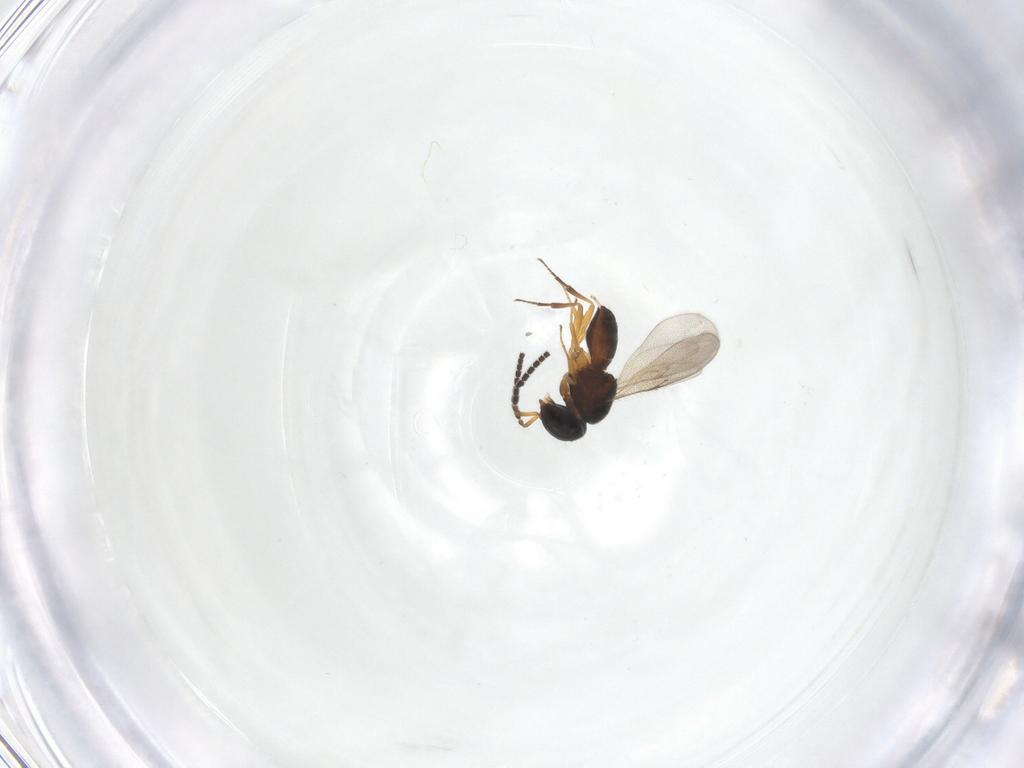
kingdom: Animalia
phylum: Arthropoda
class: Insecta
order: Hymenoptera
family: Scelionidae
